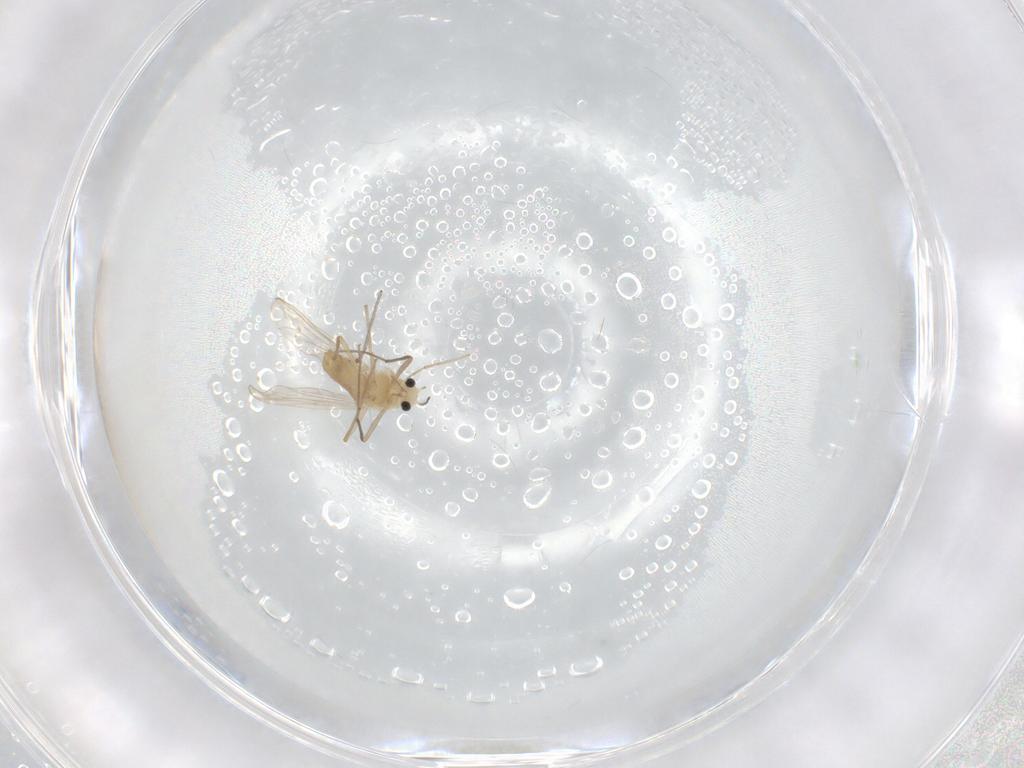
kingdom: Animalia
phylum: Arthropoda
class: Insecta
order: Diptera
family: Chironomidae
